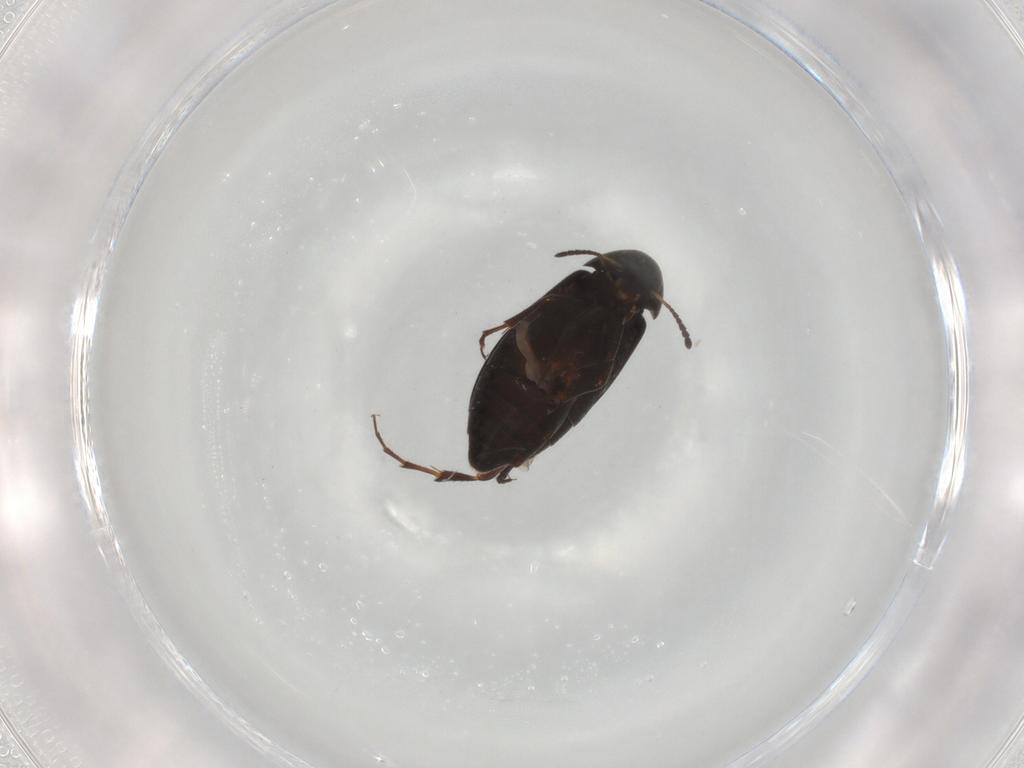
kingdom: Animalia
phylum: Arthropoda
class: Insecta
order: Coleoptera
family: Scraptiidae
